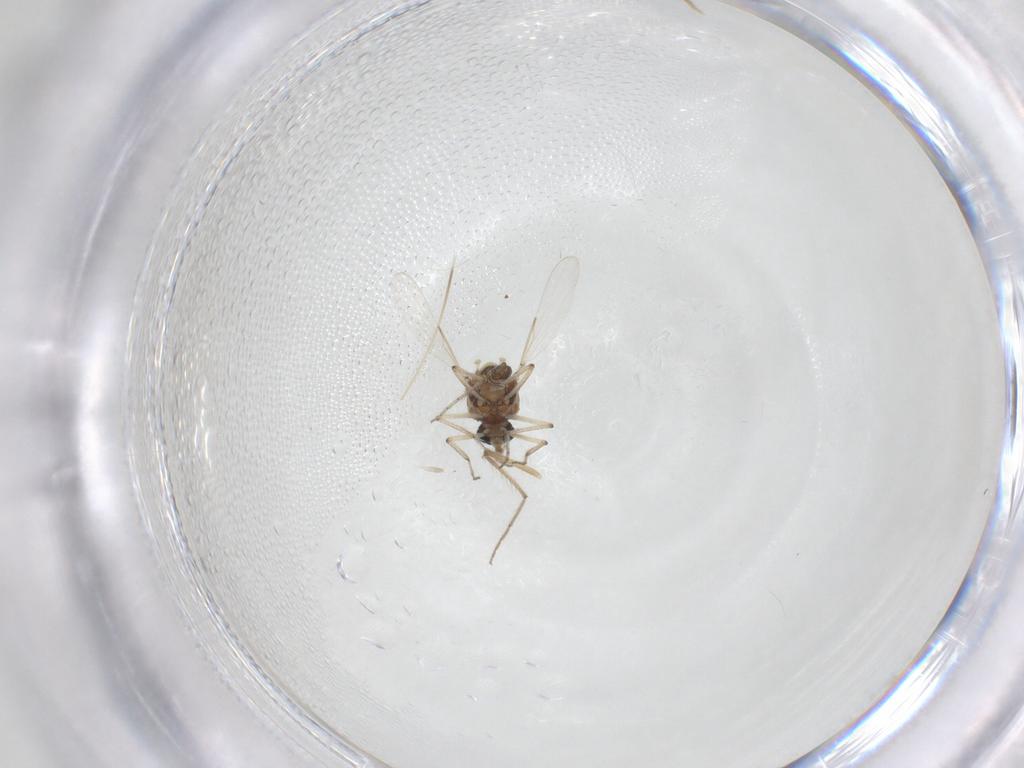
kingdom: Animalia
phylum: Arthropoda
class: Insecta
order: Diptera
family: Ceratopogonidae
